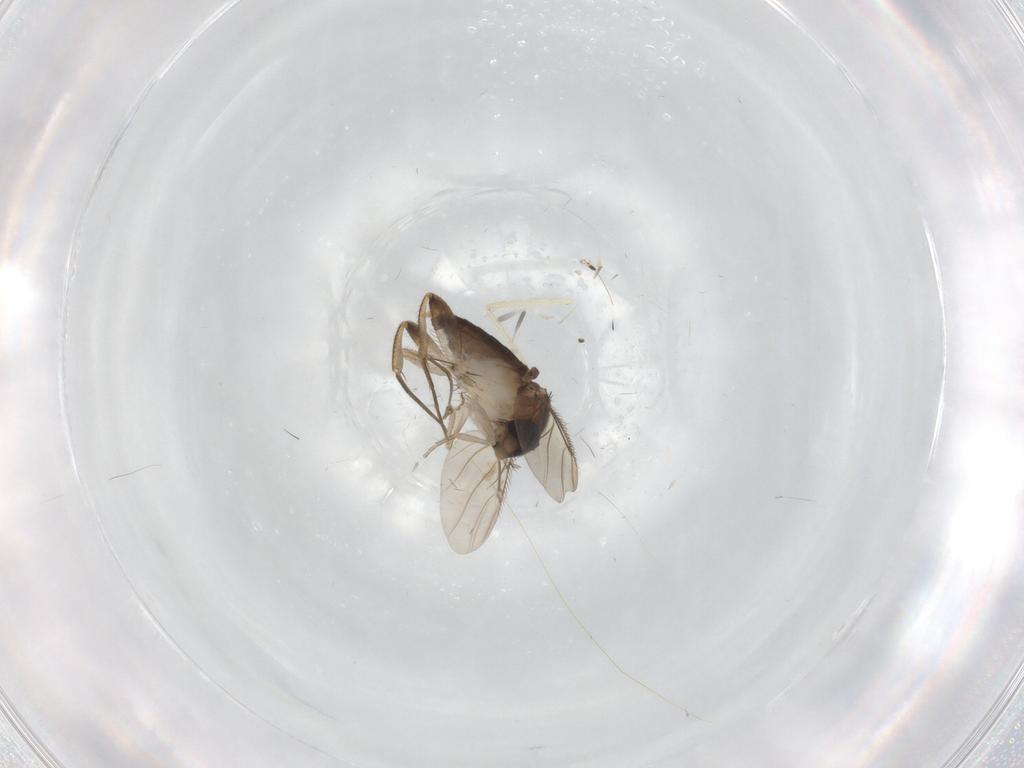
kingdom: Animalia
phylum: Arthropoda
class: Insecta
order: Diptera
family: Phoridae
